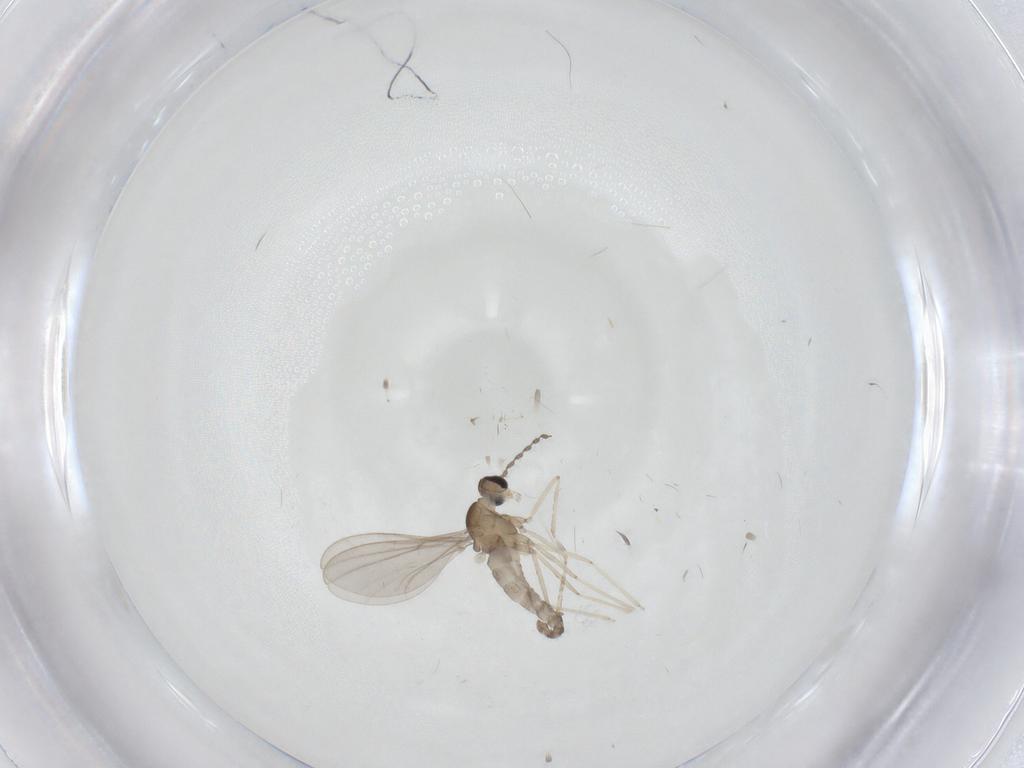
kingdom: Animalia
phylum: Arthropoda
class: Insecta
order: Diptera
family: Cecidomyiidae
